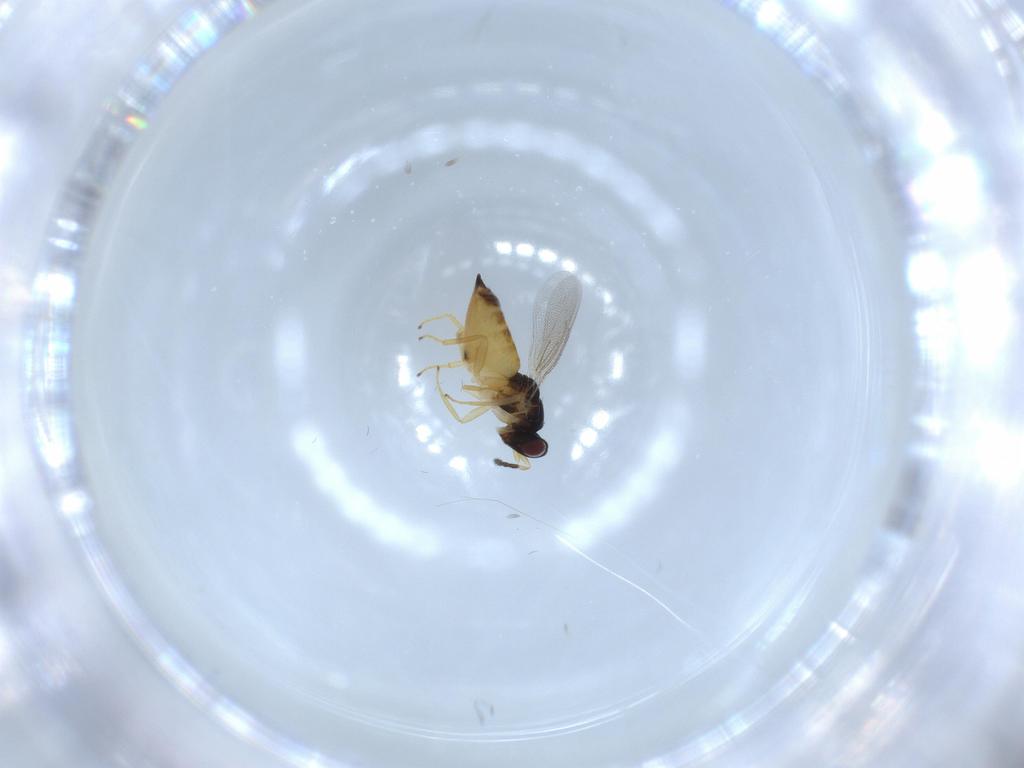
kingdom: Animalia
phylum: Arthropoda
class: Insecta
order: Hymenoptera
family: Eulophidae
